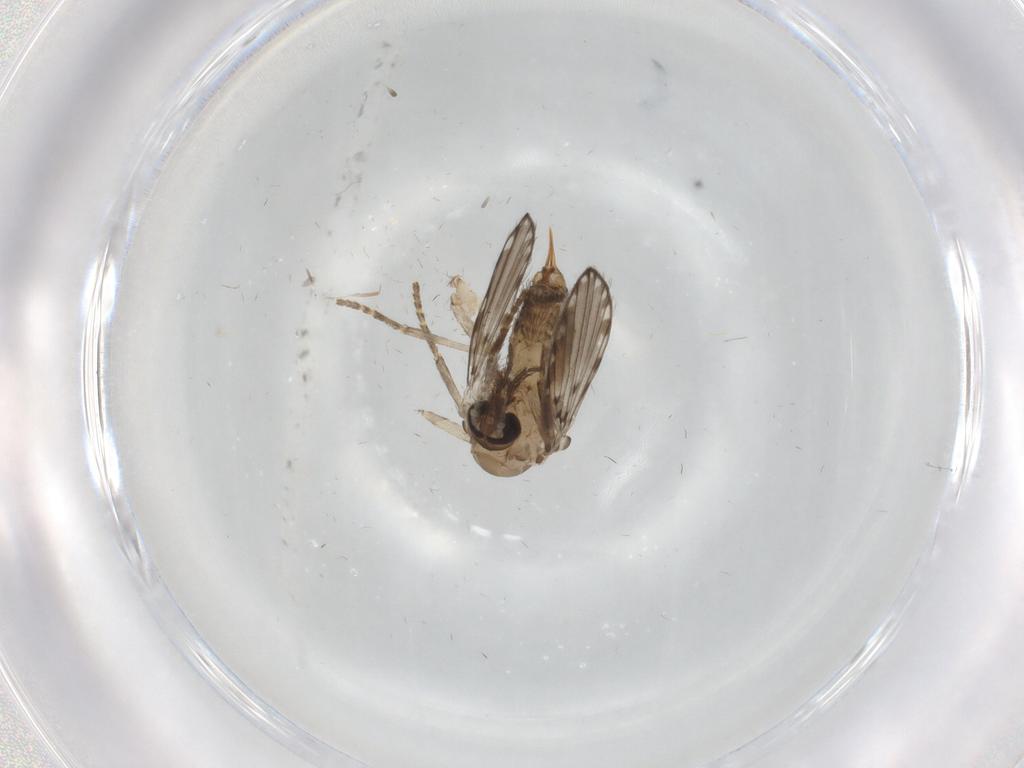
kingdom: Animalia
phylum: Arthropoda
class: Insecta
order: Diptera
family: Psychodidae
